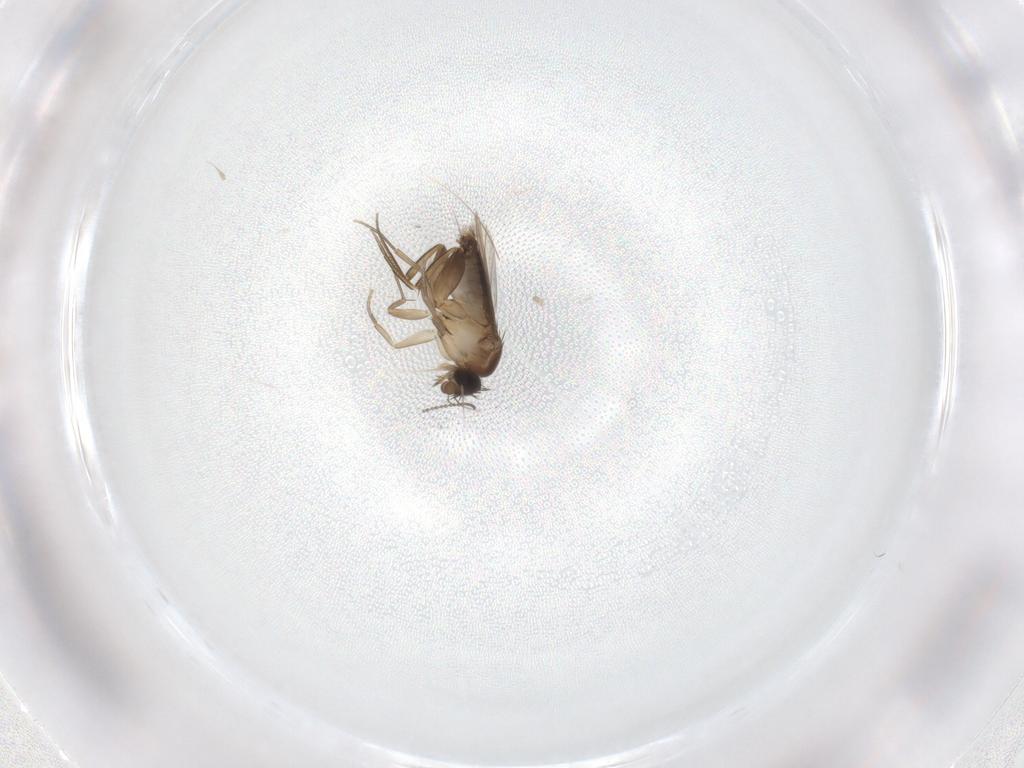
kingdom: Animalia
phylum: Arthropoda
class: Insecta
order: Diptera
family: Phoridae
